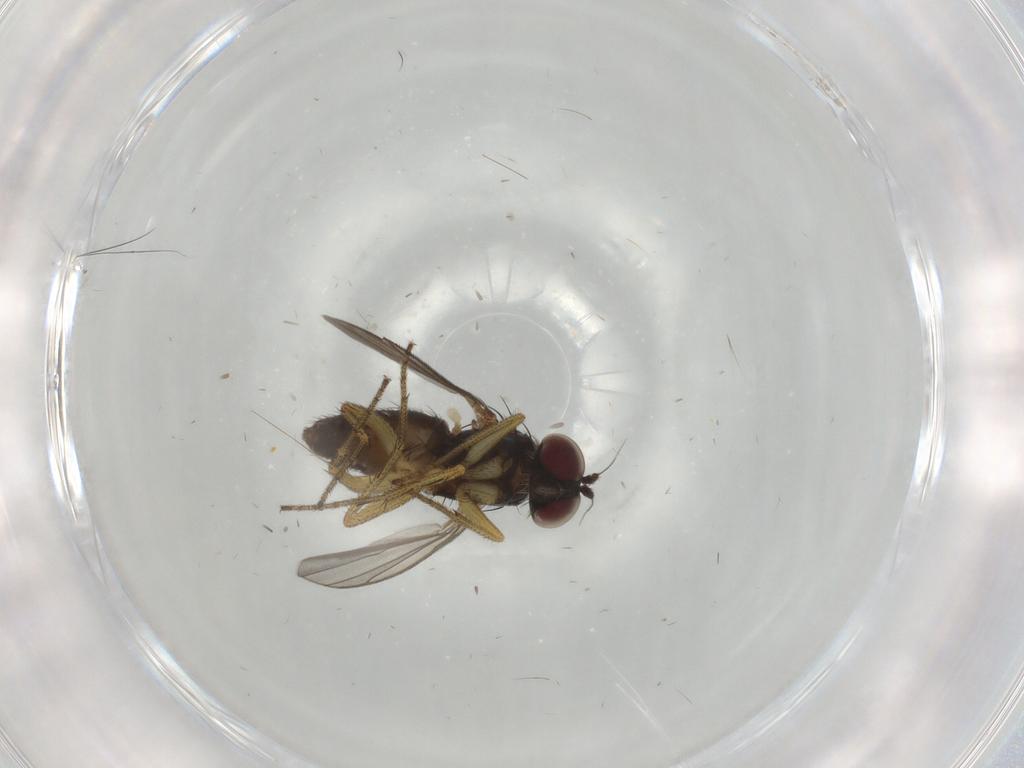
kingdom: Animalia
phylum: Arthropoda
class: Insecta
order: Diptera
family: Dolichopodidae
